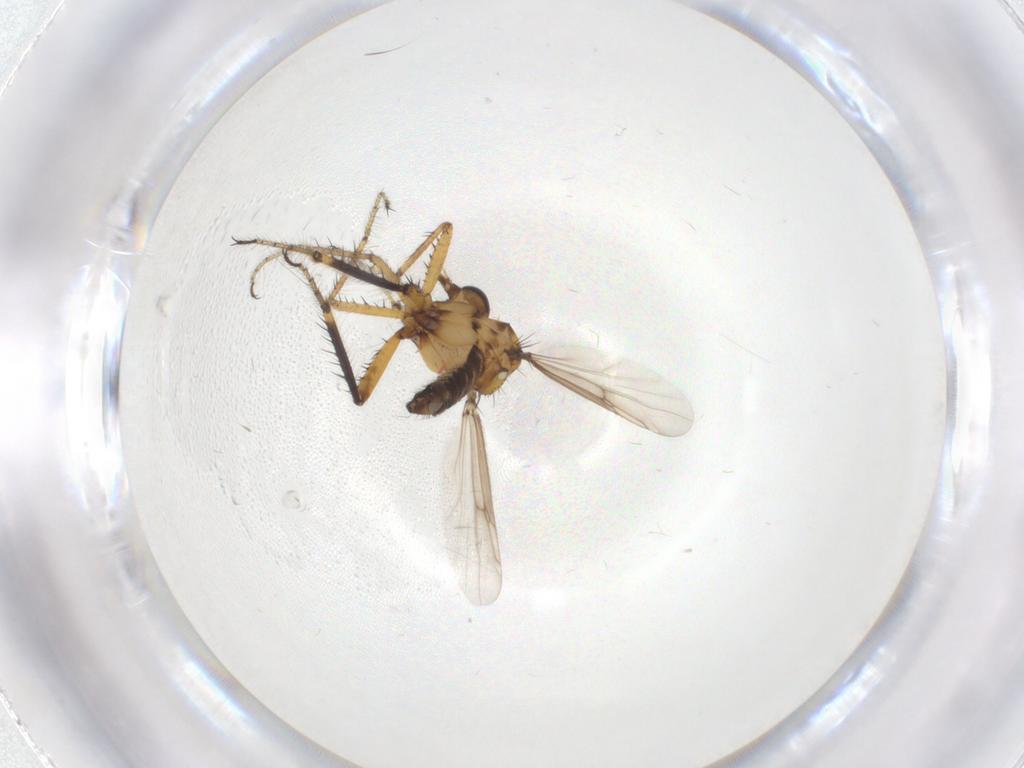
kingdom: Animalia
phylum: Arthropoda
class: Insecta
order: Diptera
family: Ceratopogonidae
